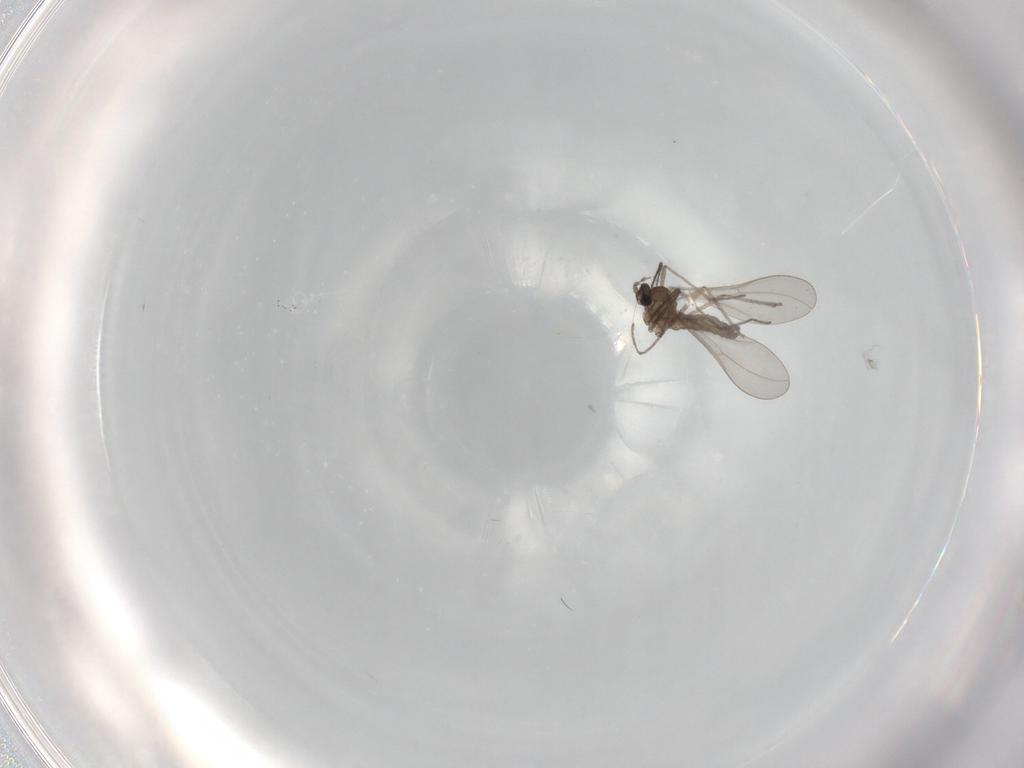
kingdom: Animalia
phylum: Arthropoda
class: Insecta
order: Diptera
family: Cecidomyiidae
